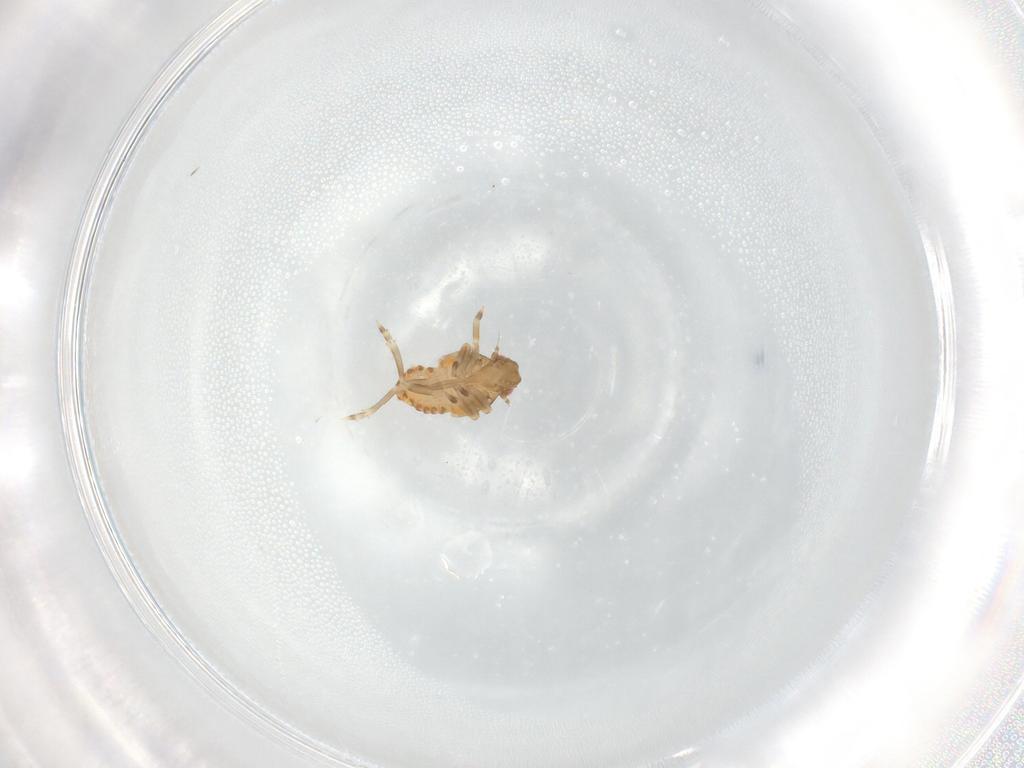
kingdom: Animalia
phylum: Arthropoda
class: Insecta
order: Hemiptera
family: Flatidae
